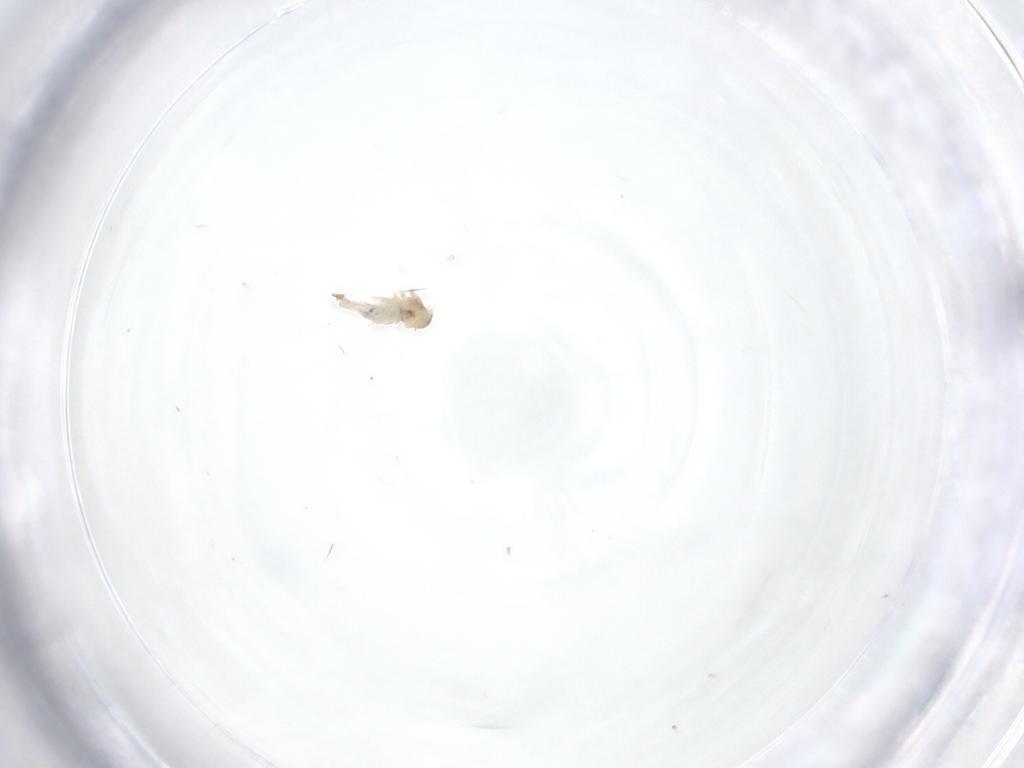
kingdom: Animalia
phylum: Arthropoda
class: Insecta
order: Diptera
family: Cecidomyiidae
